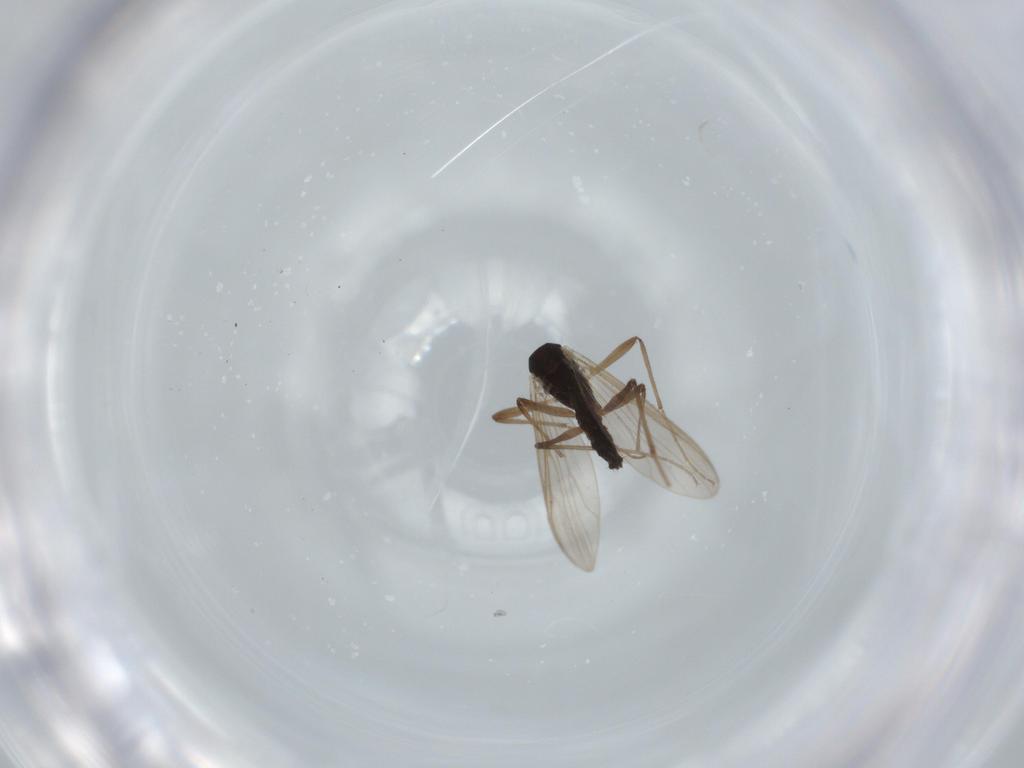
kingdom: Animalia
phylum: Arthropoda
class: Insecta
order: Diptera
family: Chironomidae
